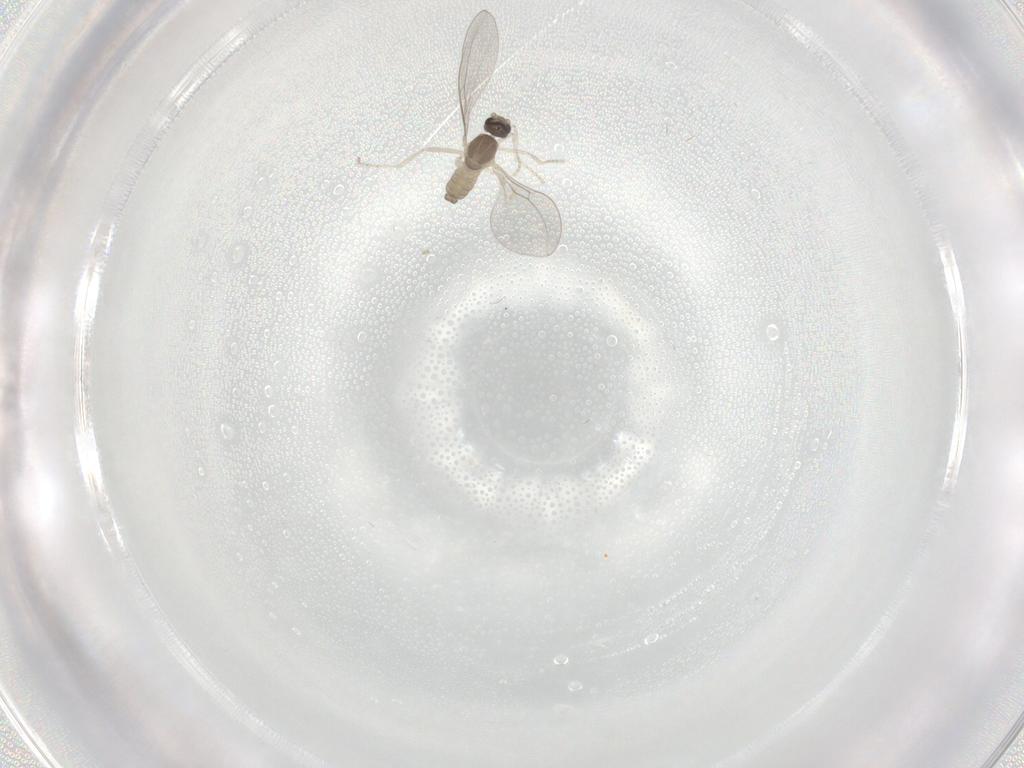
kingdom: Animalia
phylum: Arthropoda
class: Insecta
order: Diptera
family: Cecidomyiidae
